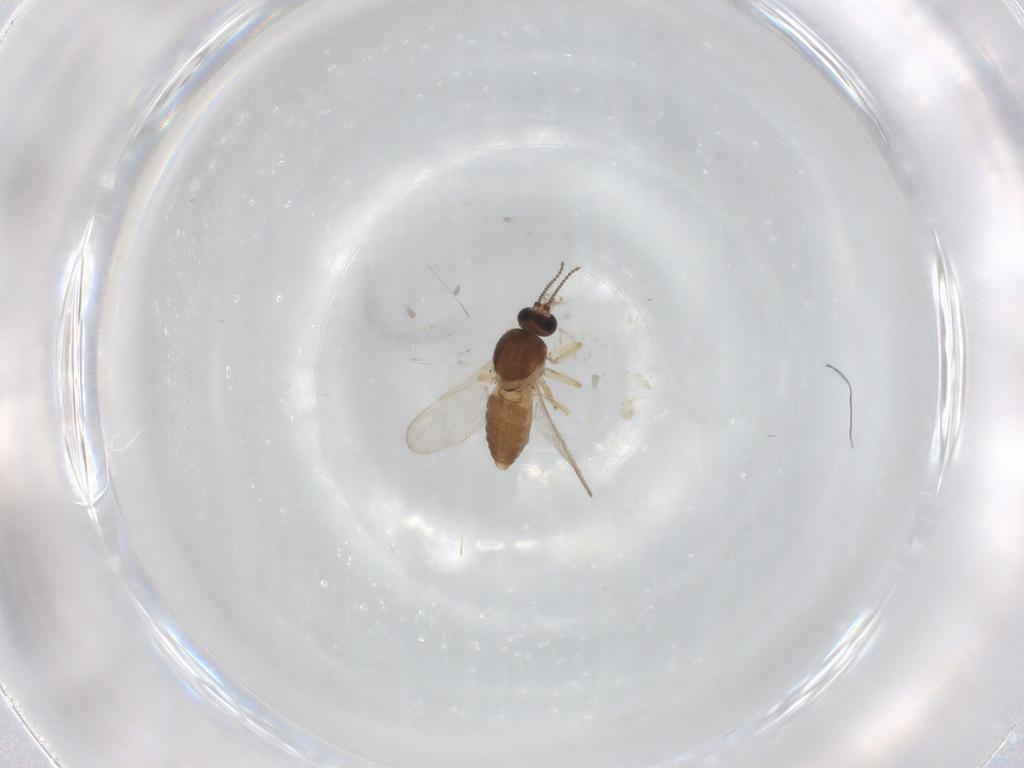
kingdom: Animalia
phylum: Arthropoda
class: Insecta
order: Diptera
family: Ceratopogonidae
